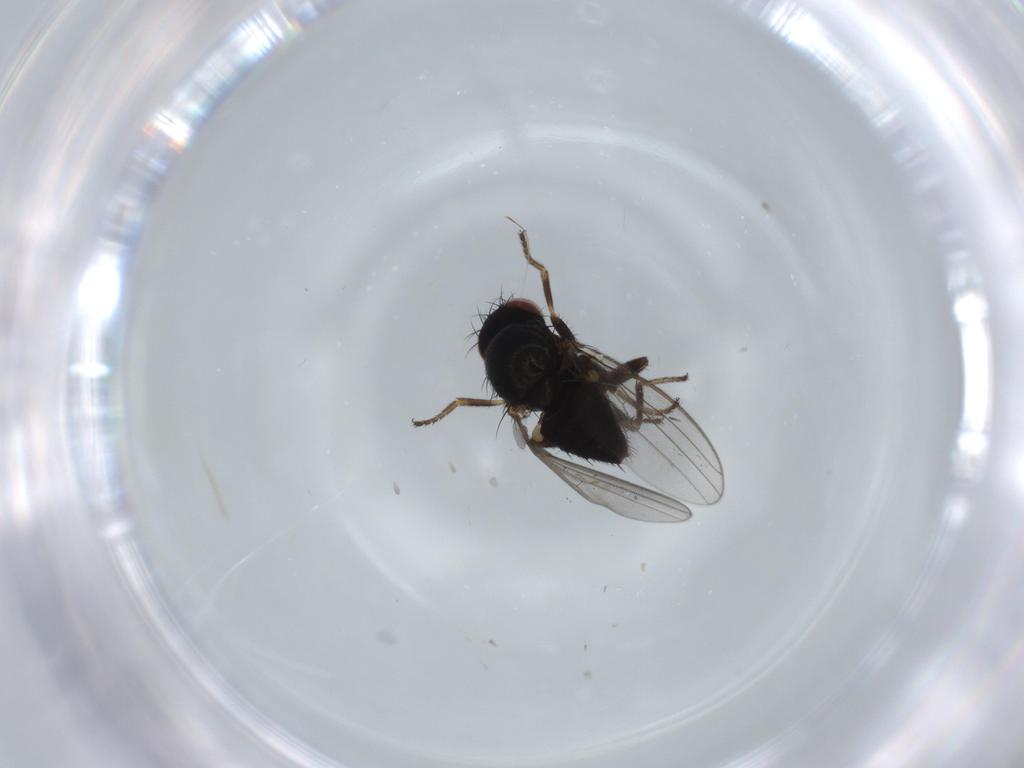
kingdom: Animalia
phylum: Arthropoda
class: Insecta
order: Diptera
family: Milichiidae
